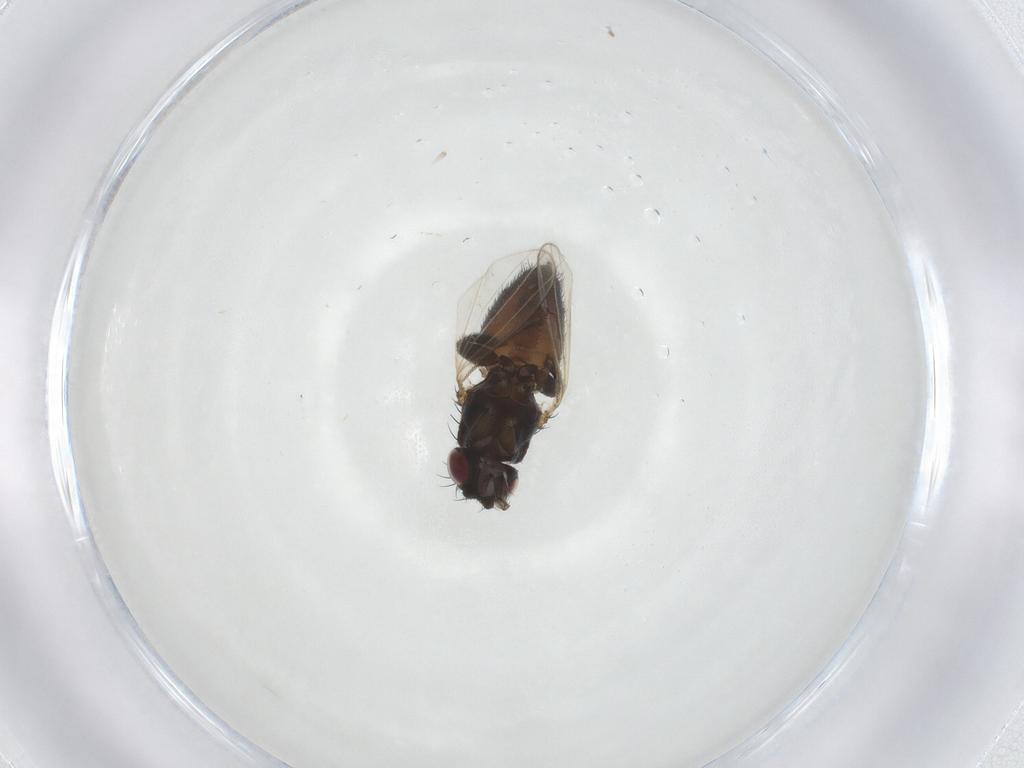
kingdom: Animalia
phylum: Arthropoda
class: Insecta
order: Diptera
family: Milichiidae
